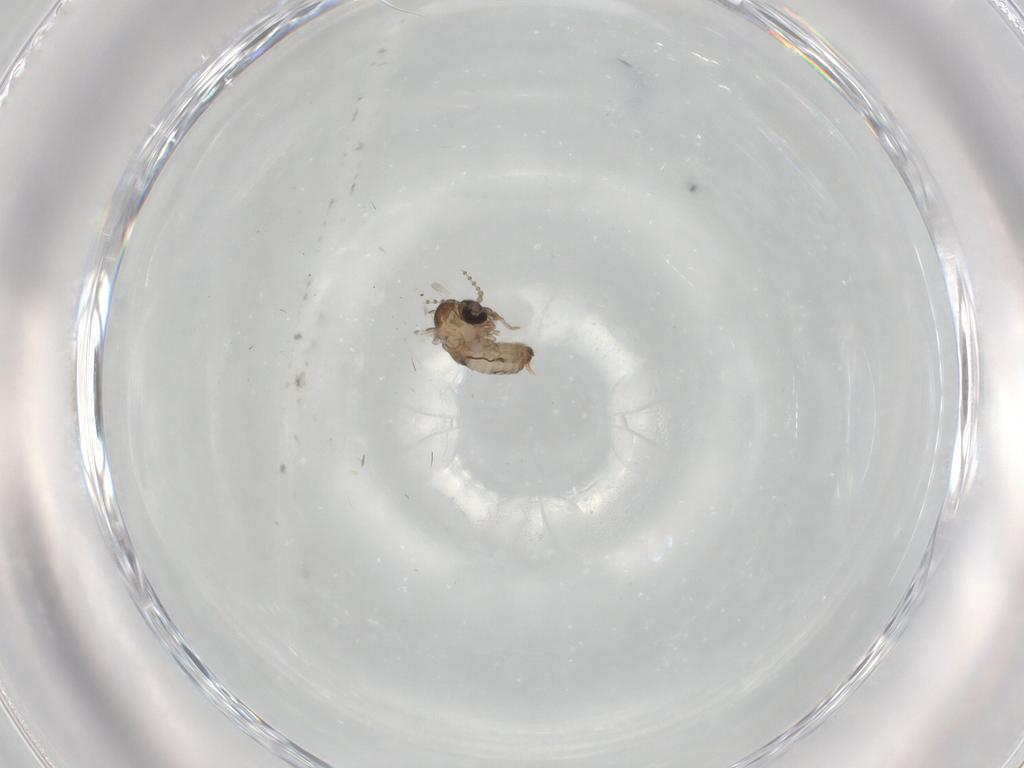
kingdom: Animalia
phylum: Arthropoda
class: Insecta
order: Diptera
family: Psychodidae
